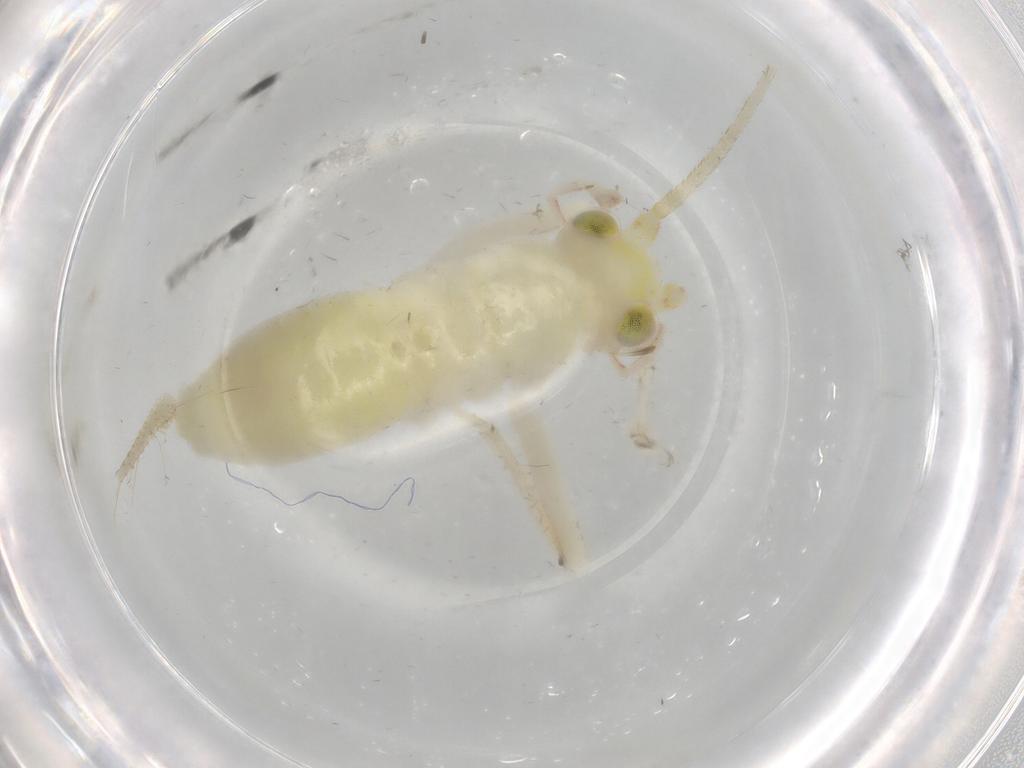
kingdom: Animalia
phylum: Arthropoda
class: Insecta
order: Orthoptera
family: Trigonidiidae
